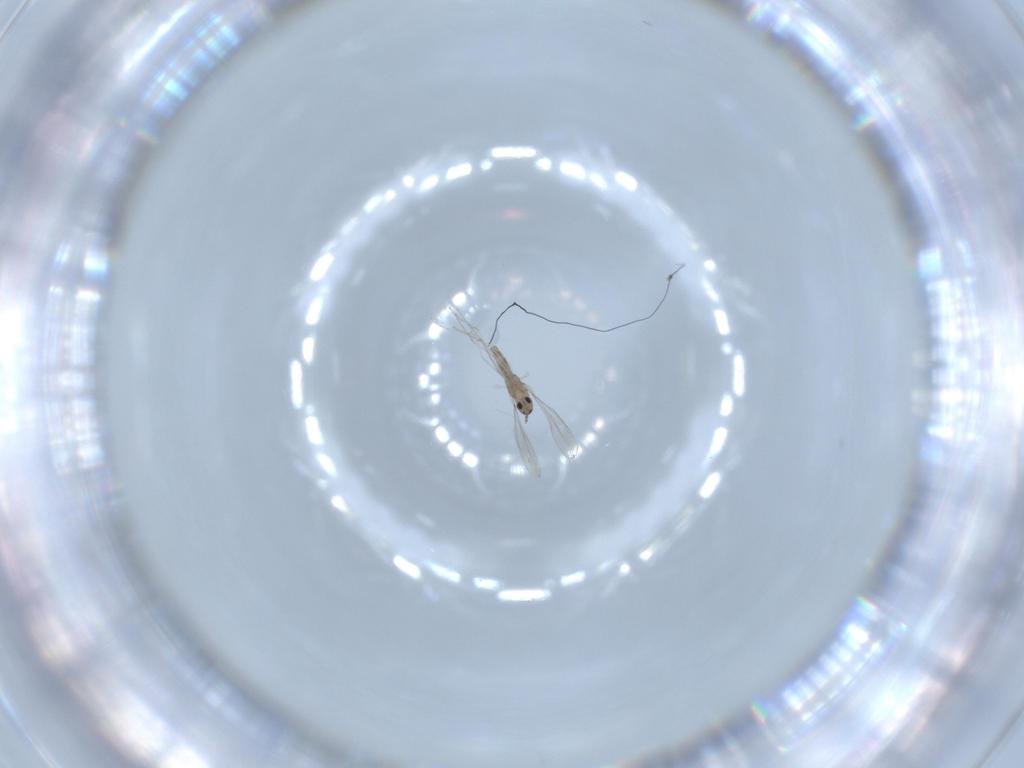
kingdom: Animalia
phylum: Arthropoda
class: Insecta
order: Diptera
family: Cecidomyiidae
